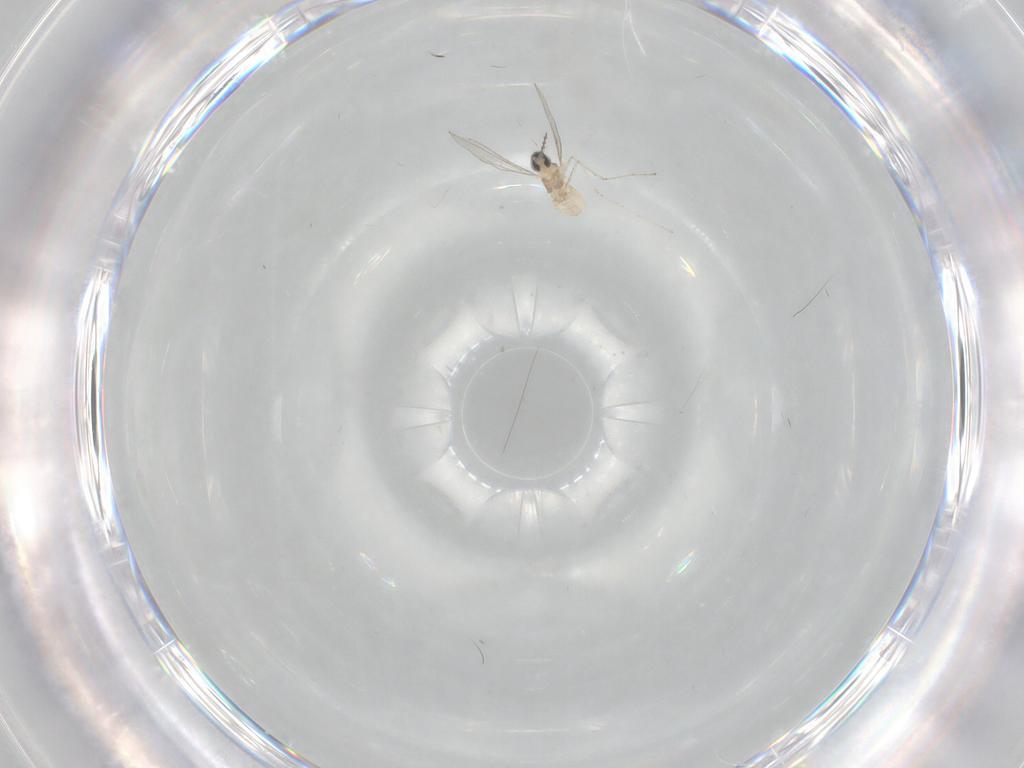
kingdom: Animalia
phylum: Arthropoda
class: Insecta
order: Diptera
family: Cecidomyiidae
